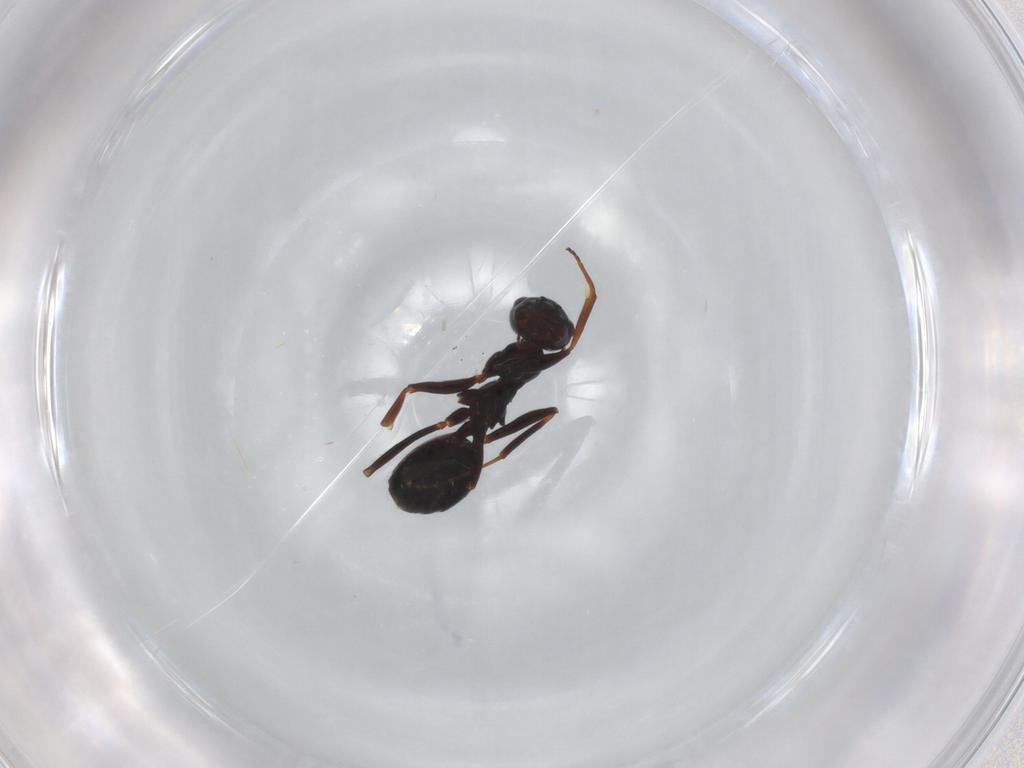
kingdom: Animalia
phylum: Arthropoda
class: Insecta
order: Hymenoptera
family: Formicidae
